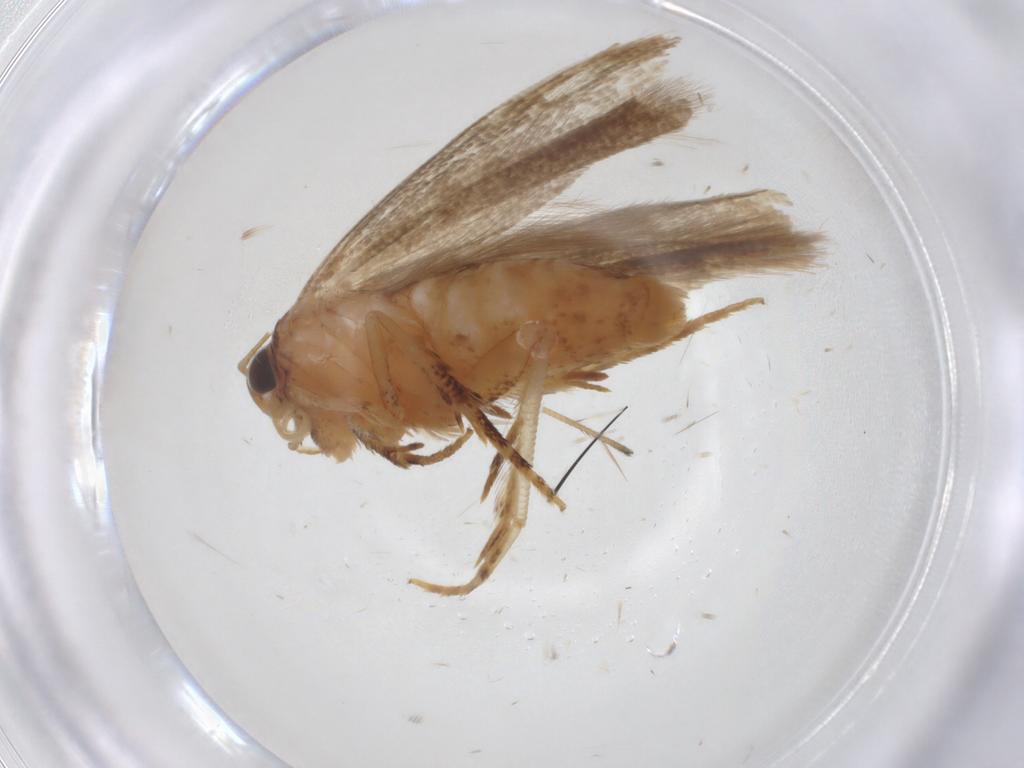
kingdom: Animalia
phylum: Arthropoda
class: Insecta
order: Lepidoptera
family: Gelechiidae
